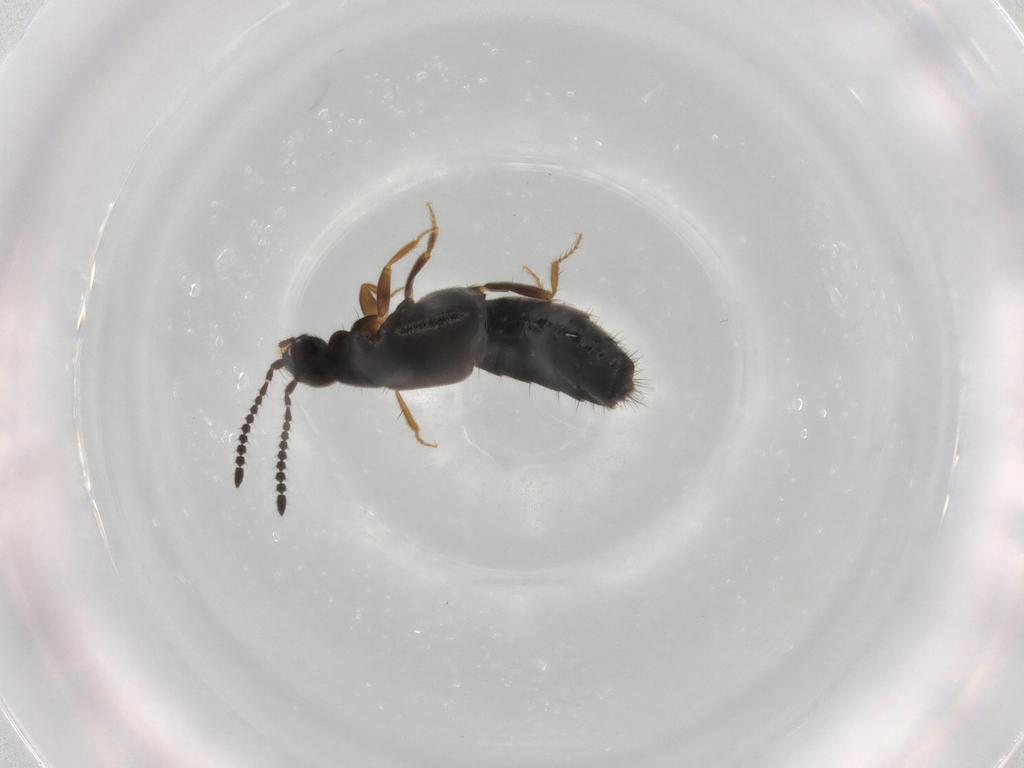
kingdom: Animalia
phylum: Arthropoda
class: Insecta
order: Coleoptera
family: Staphylinidae
